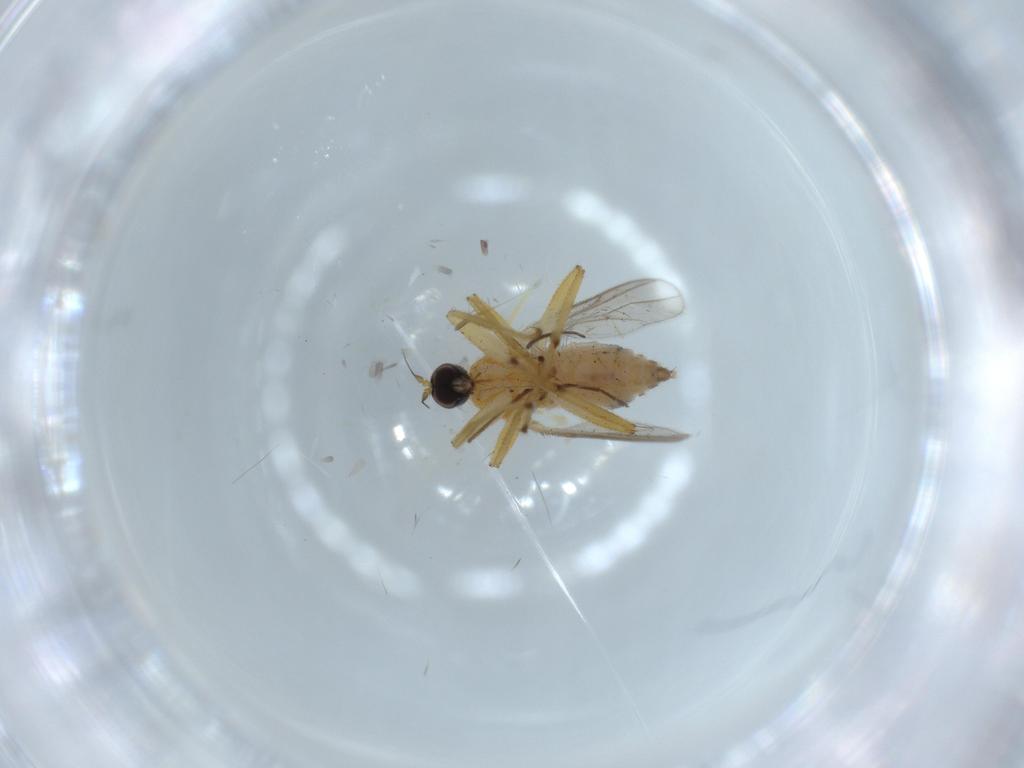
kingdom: Animalia
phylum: Arthropoda
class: Insecta
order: Diptera
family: Hybotidae
